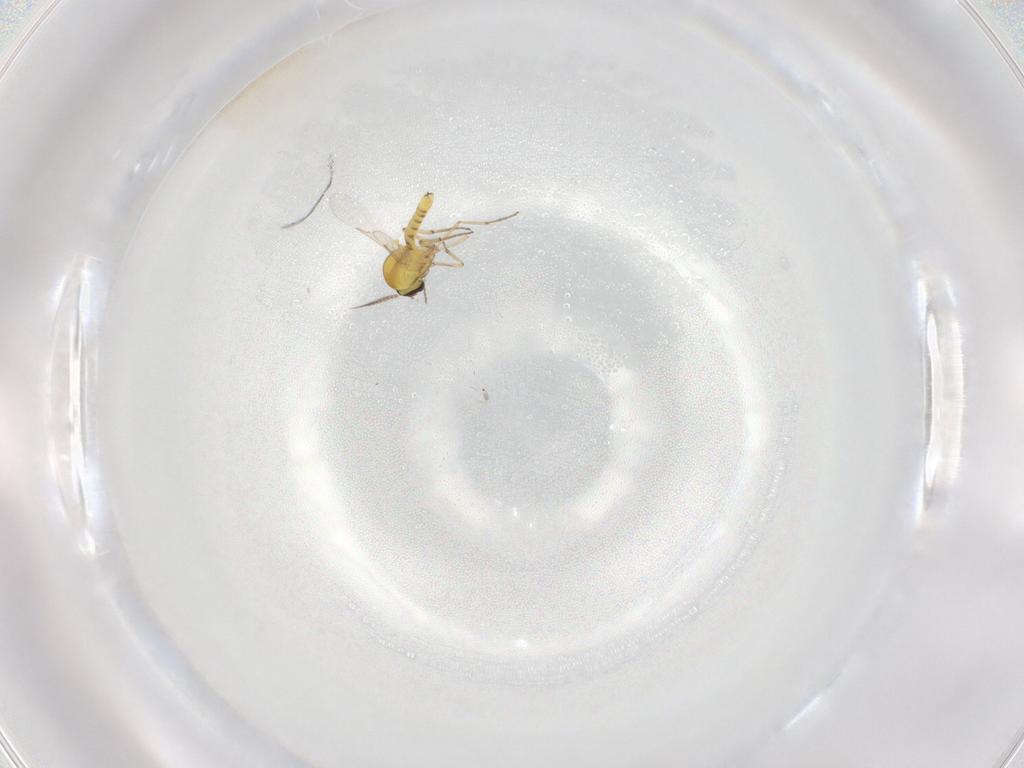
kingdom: Animalia
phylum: Arthropoda
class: Insecta
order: Diptera
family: Ceratopogonidae
